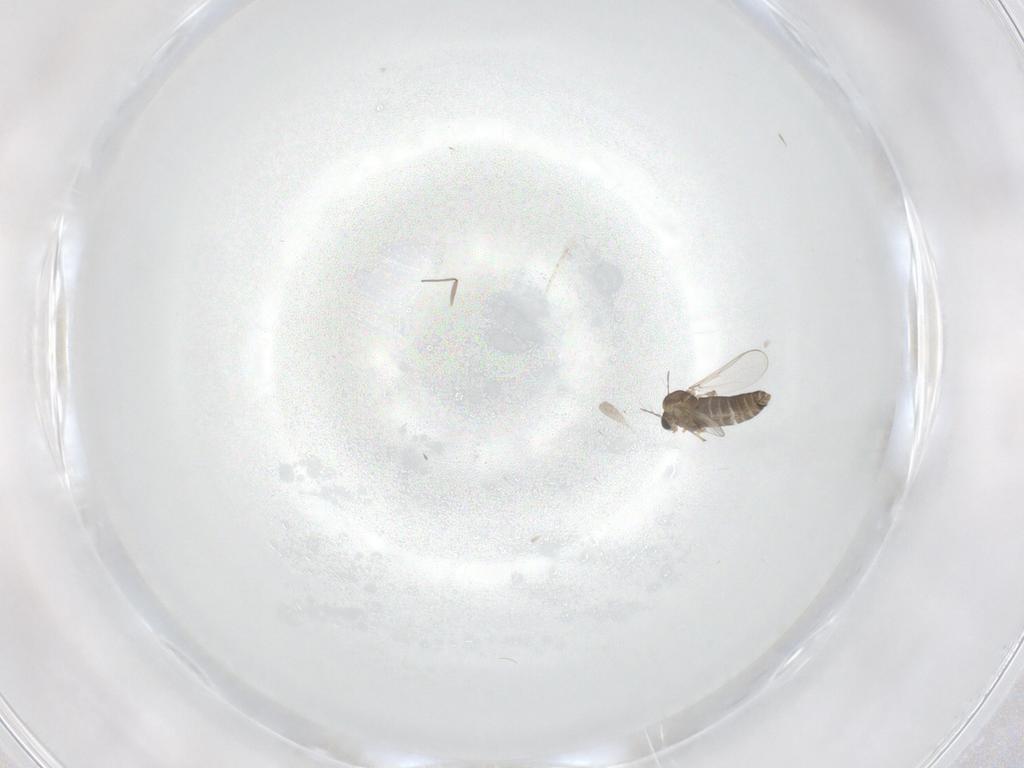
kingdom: Animalia
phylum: Arthropoda
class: Insecta
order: Diptera
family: Chironomidae
